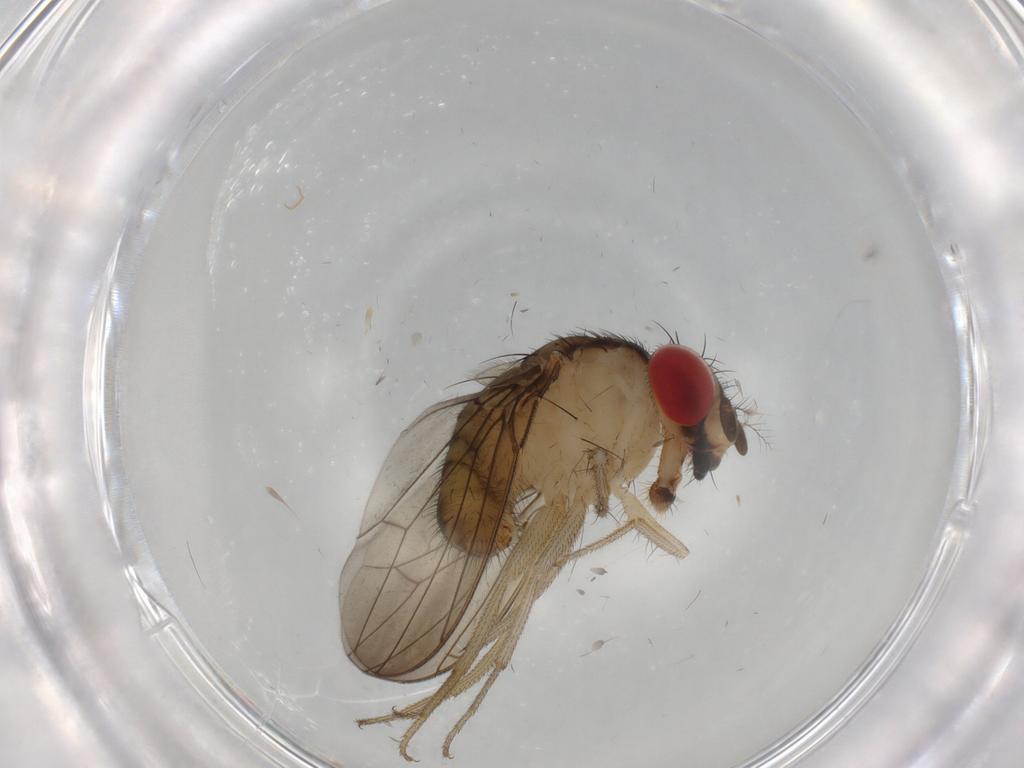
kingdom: Animalia
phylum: Arthropoda
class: Insecta
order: Diptera
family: Drosophilidae
